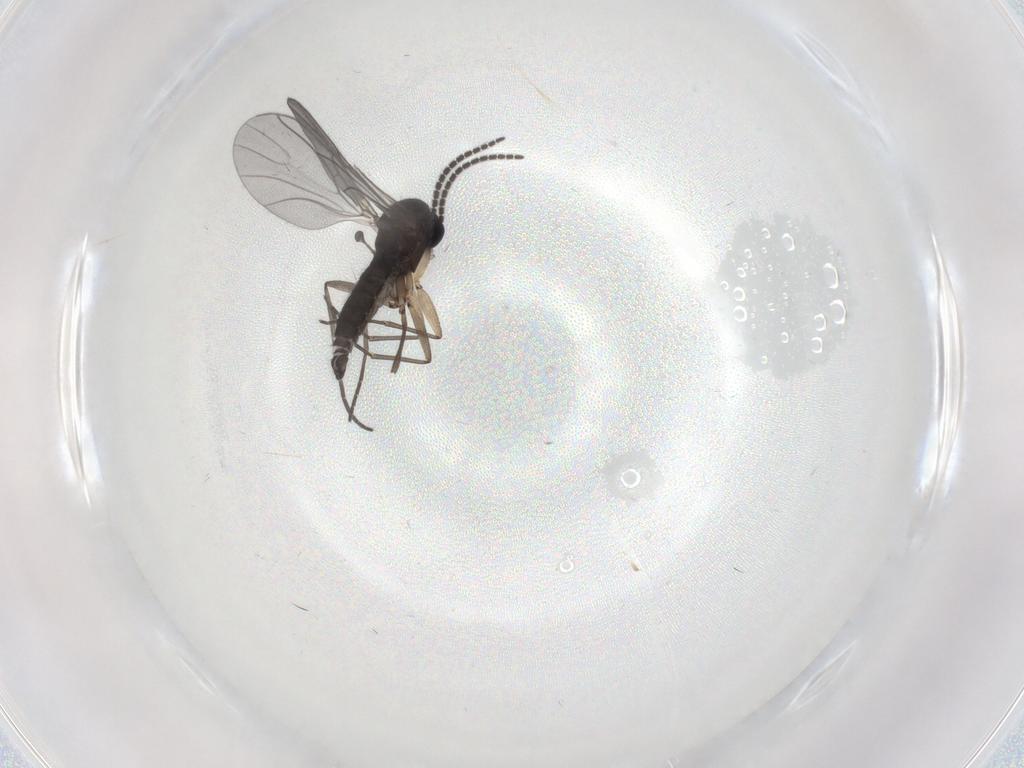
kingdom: Animalia
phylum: Arthropoda
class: Insecta
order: Diptera
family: Sciaridae
